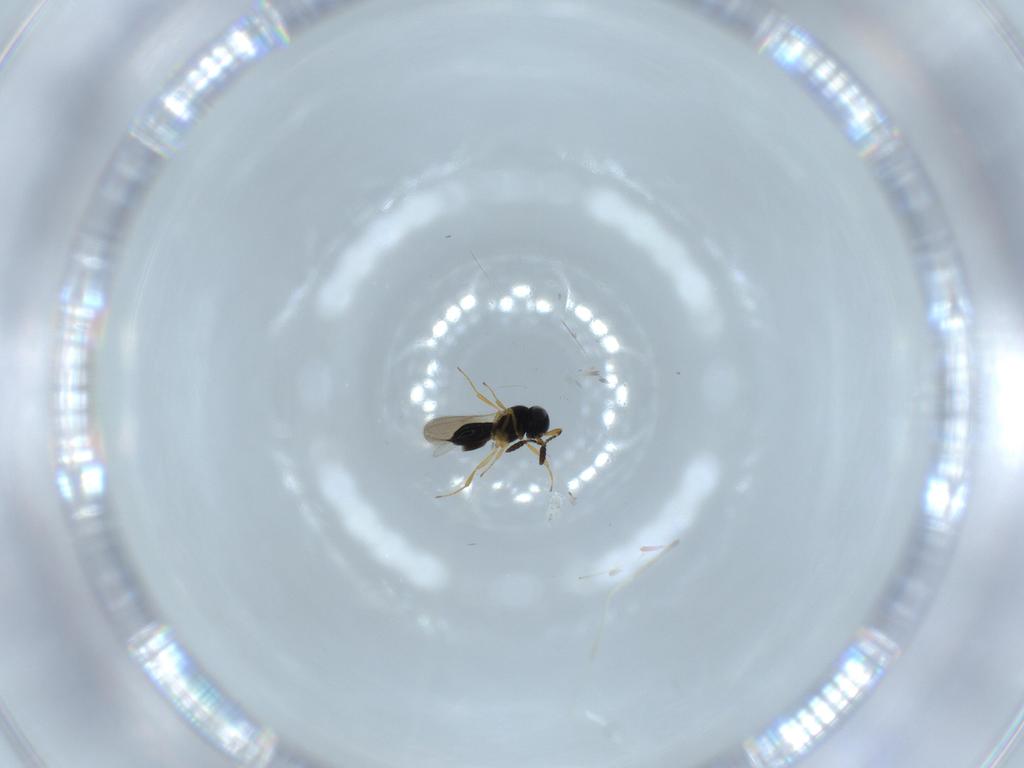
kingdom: Animalia
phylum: Arthropoda
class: Insecta
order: Hymenoptera
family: Scelionidae
